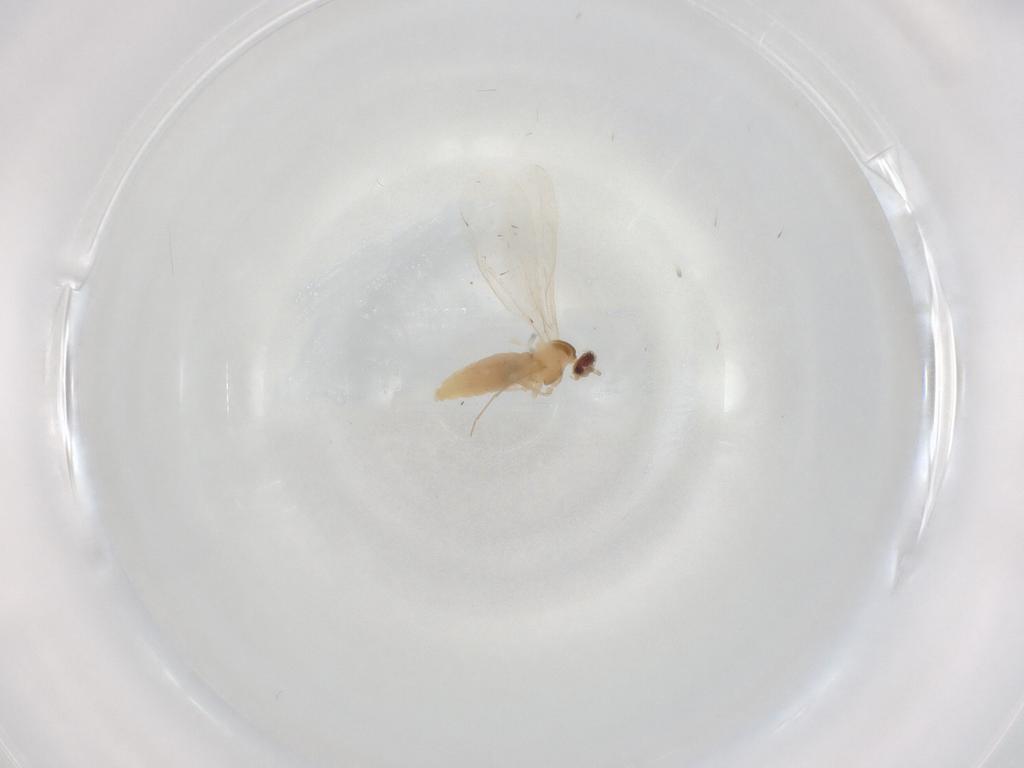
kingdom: Animalia
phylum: Arthropoda
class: Insecta
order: Diptera
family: Cecidomyiidae
